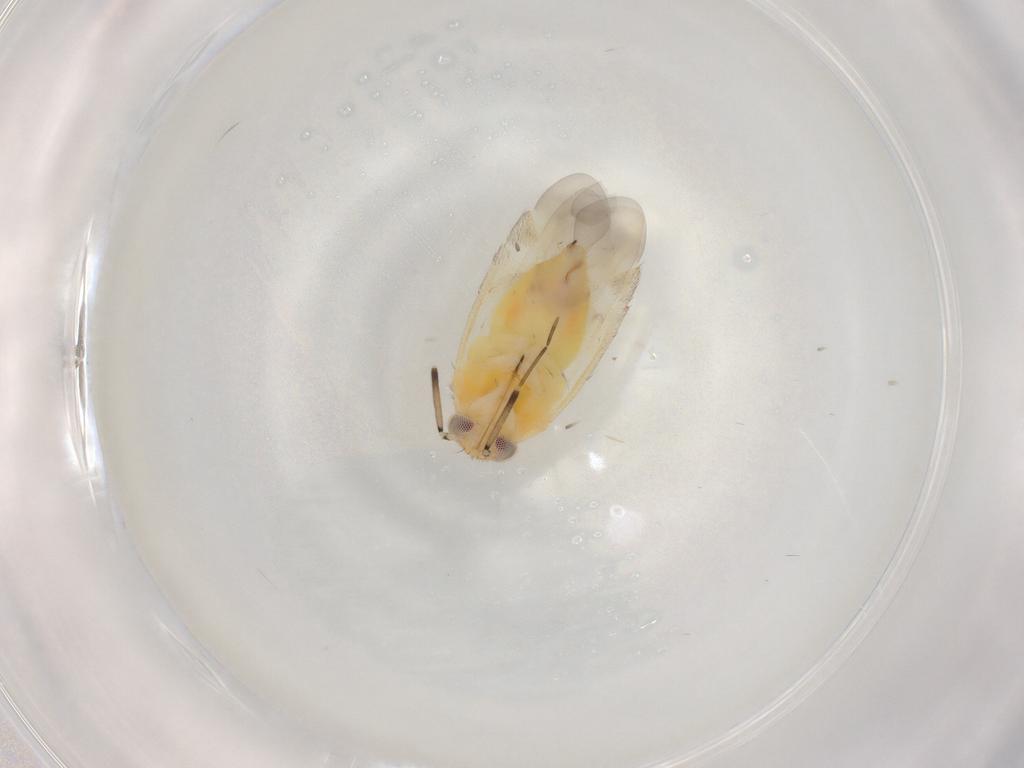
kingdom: Animalia
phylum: Arthropoda
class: Insecta
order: Hemiptera
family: Miridae
